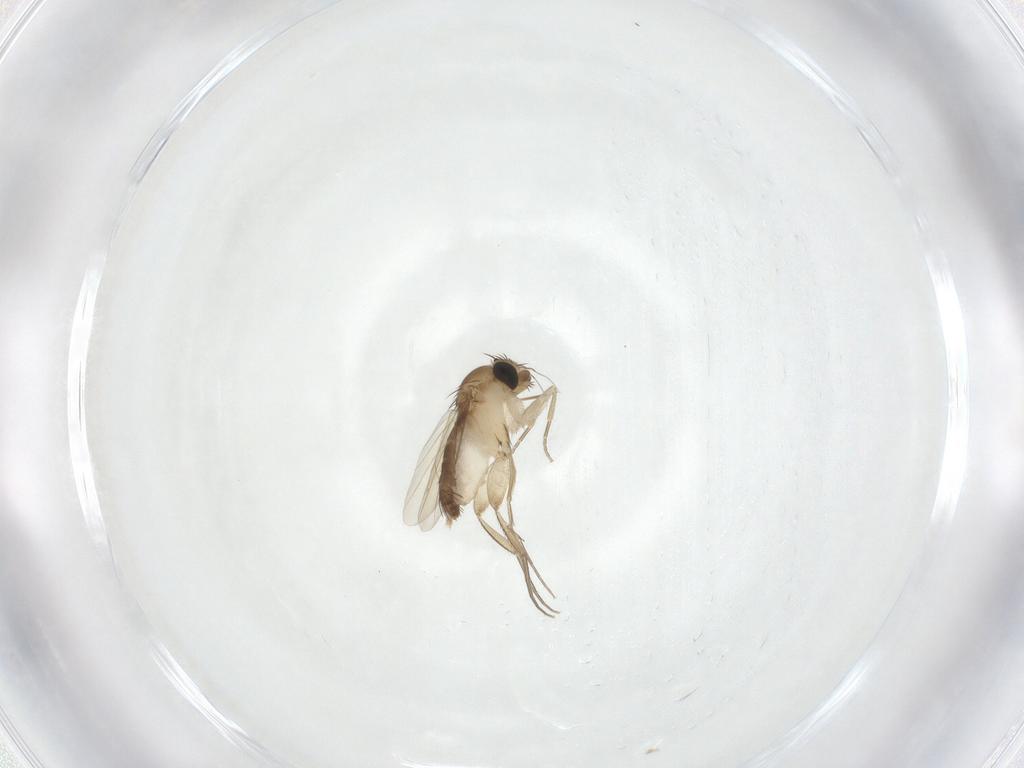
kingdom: Animalia
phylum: Arthropoda
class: Insecta
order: Diptera
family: Phoridae
